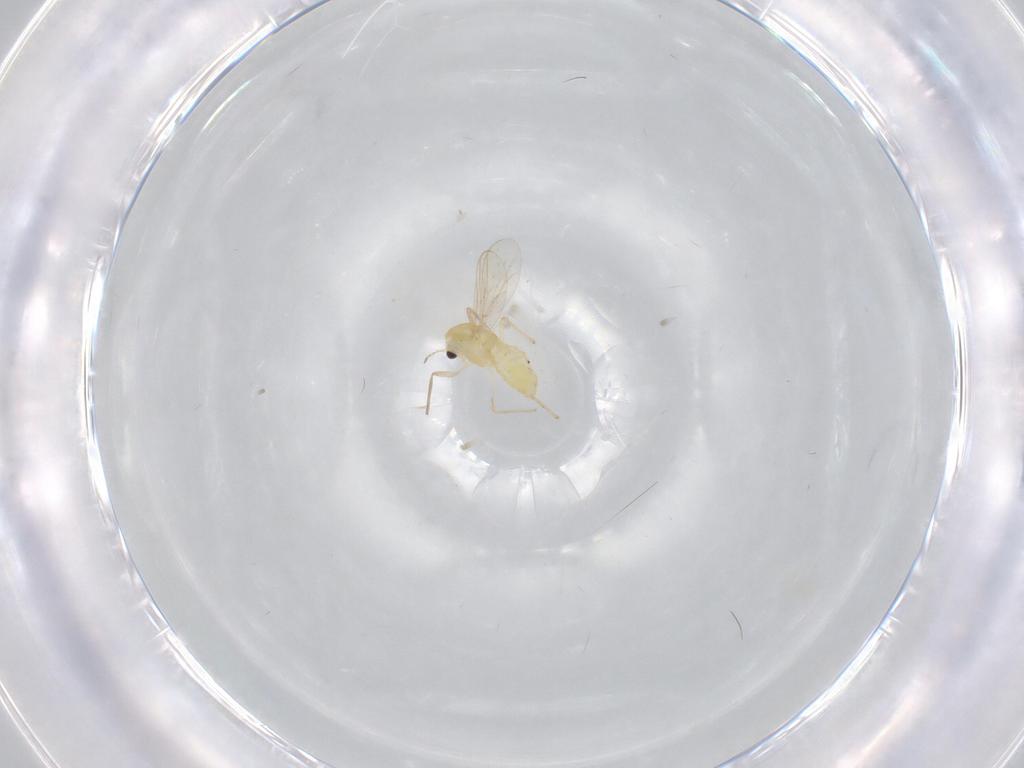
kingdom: Animalia
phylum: Arthropoda
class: Insecta
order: Diptera
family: Chironomidae
